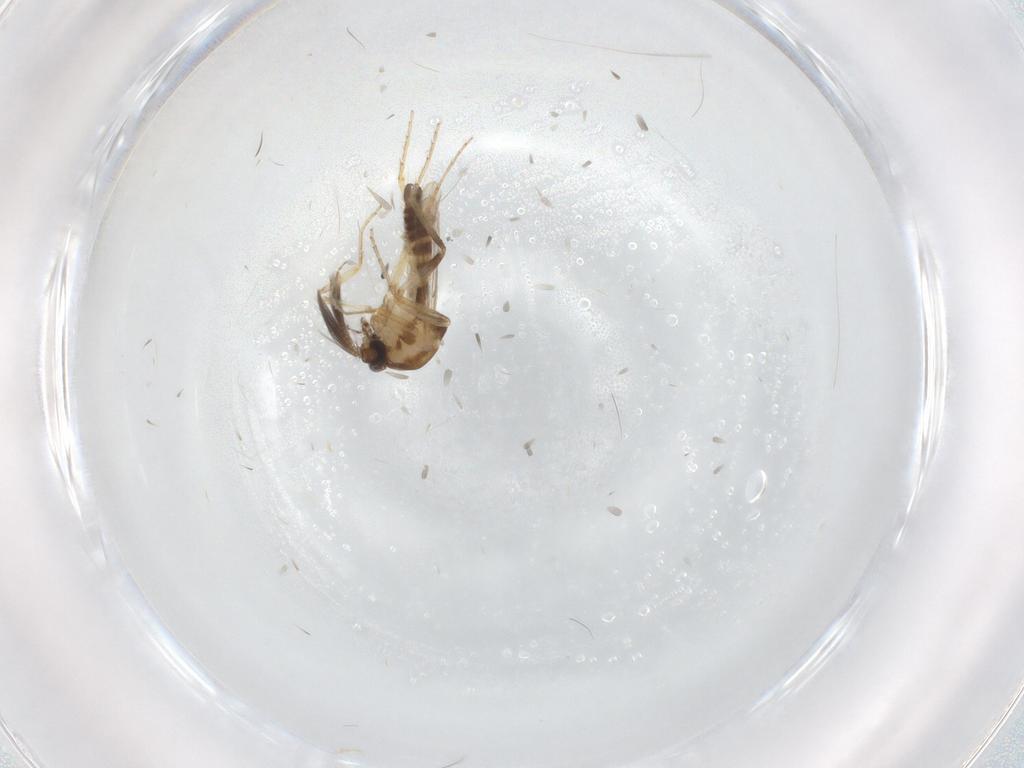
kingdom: Animalia
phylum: Arthropoda
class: Insecta
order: Diptera
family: Ceratopogonidae
